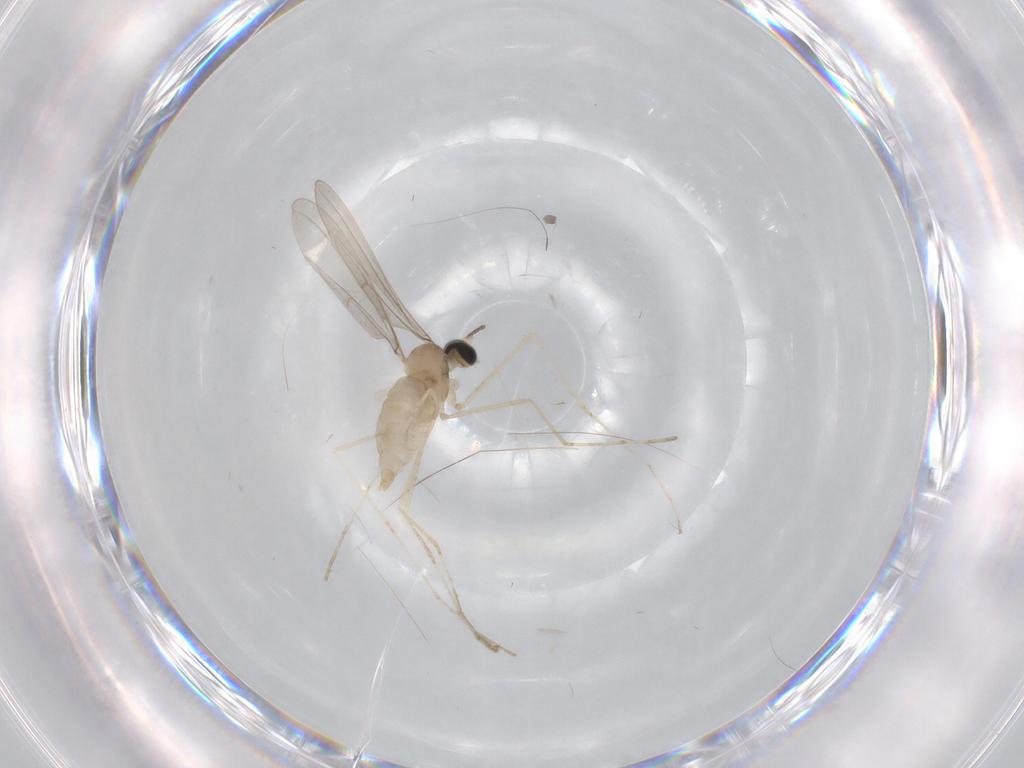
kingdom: Animalia
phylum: Arthropoda
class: Insecta
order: Diptera
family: Cecidomyiidae
